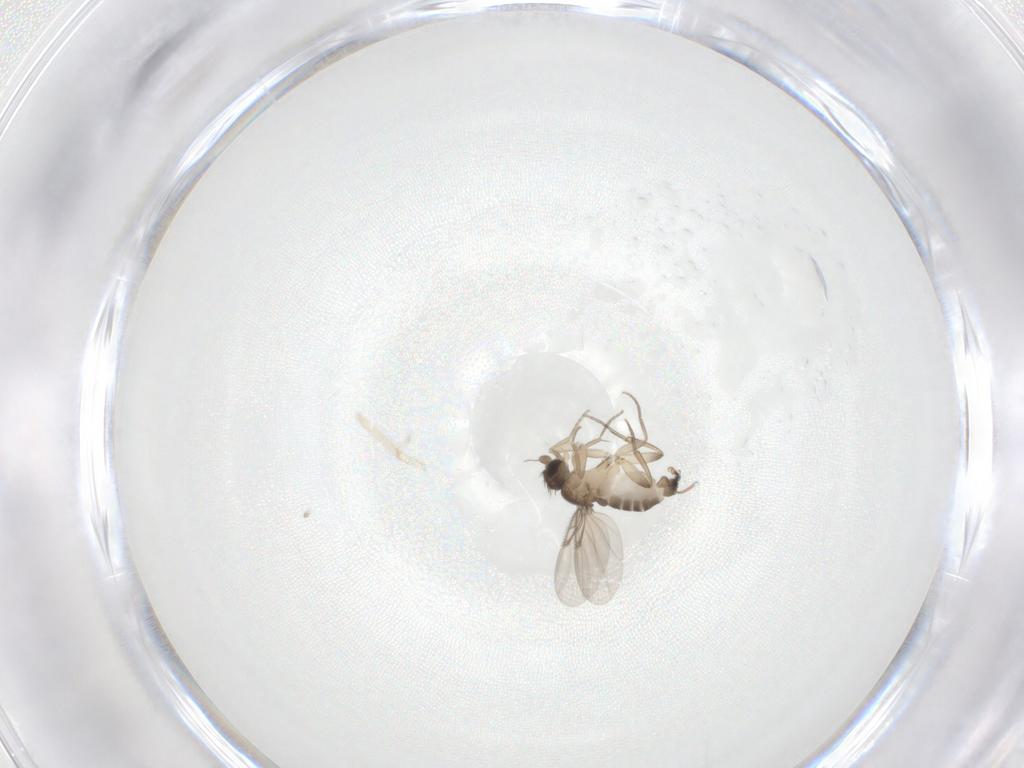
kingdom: Animalia
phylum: Arthropoda
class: Insecta
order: Diptera
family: Phoridae
